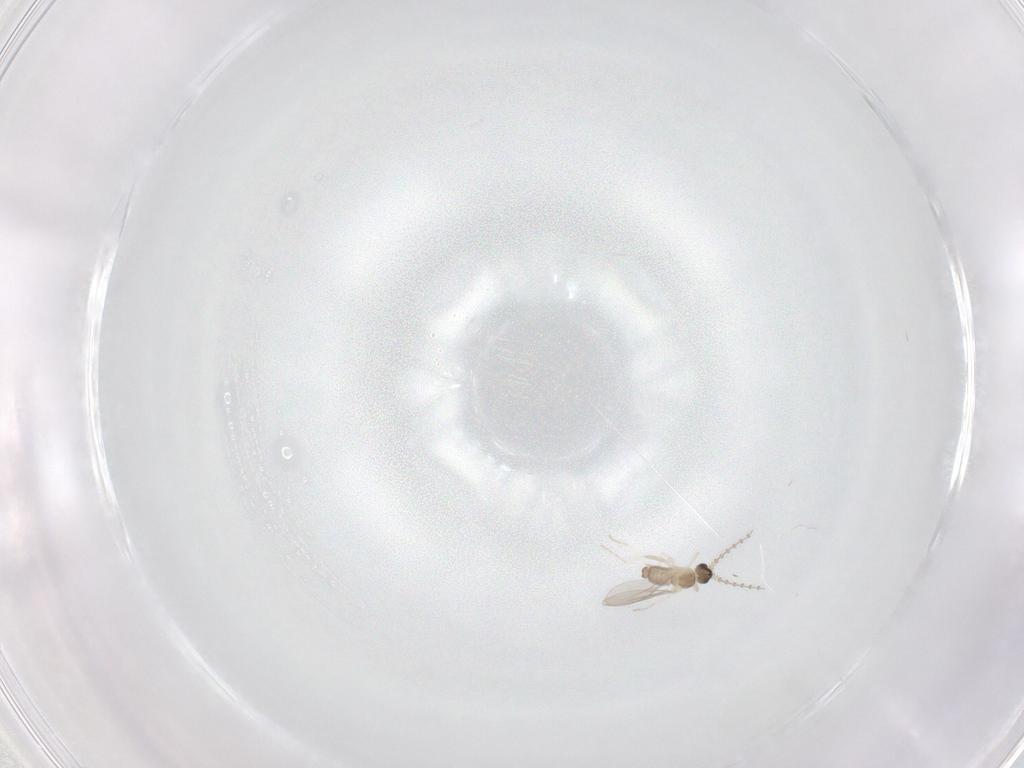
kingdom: Animalia
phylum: Arthropoda
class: Insecta
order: Diptera
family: Cecidomyiidae
